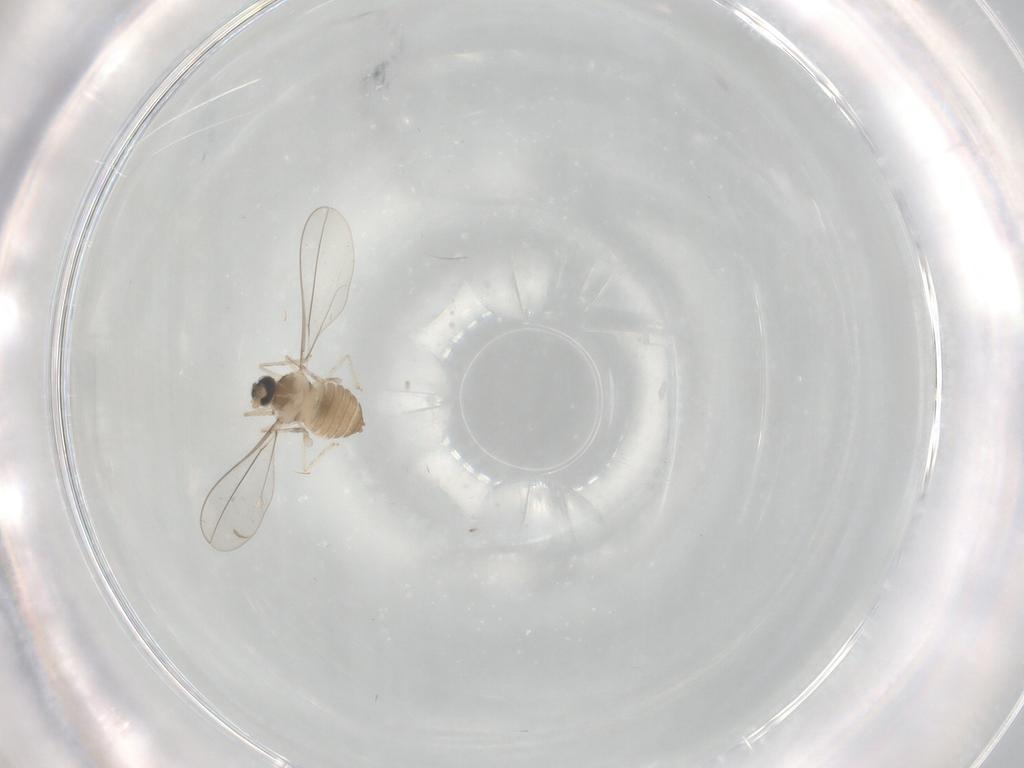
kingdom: Animalia
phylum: Arthropoda
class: Insecta
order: Diptera
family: Cecidomyiidae
